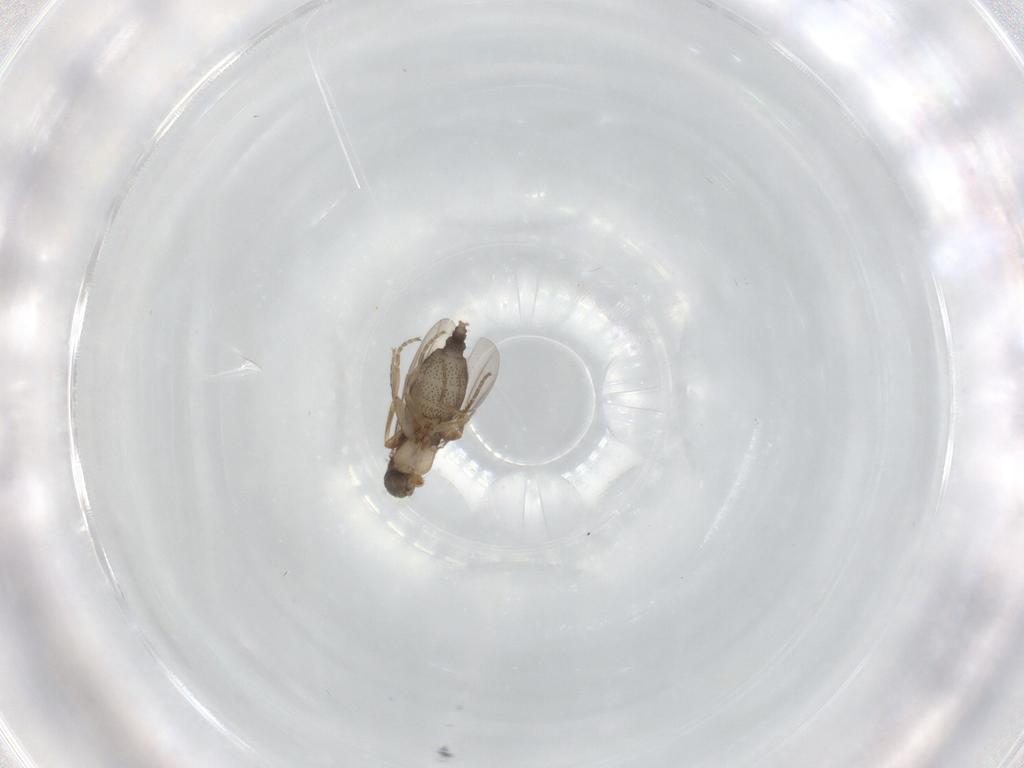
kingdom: Animalia
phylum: Arthropoda
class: Insecta
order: Diptera
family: Phoridae
